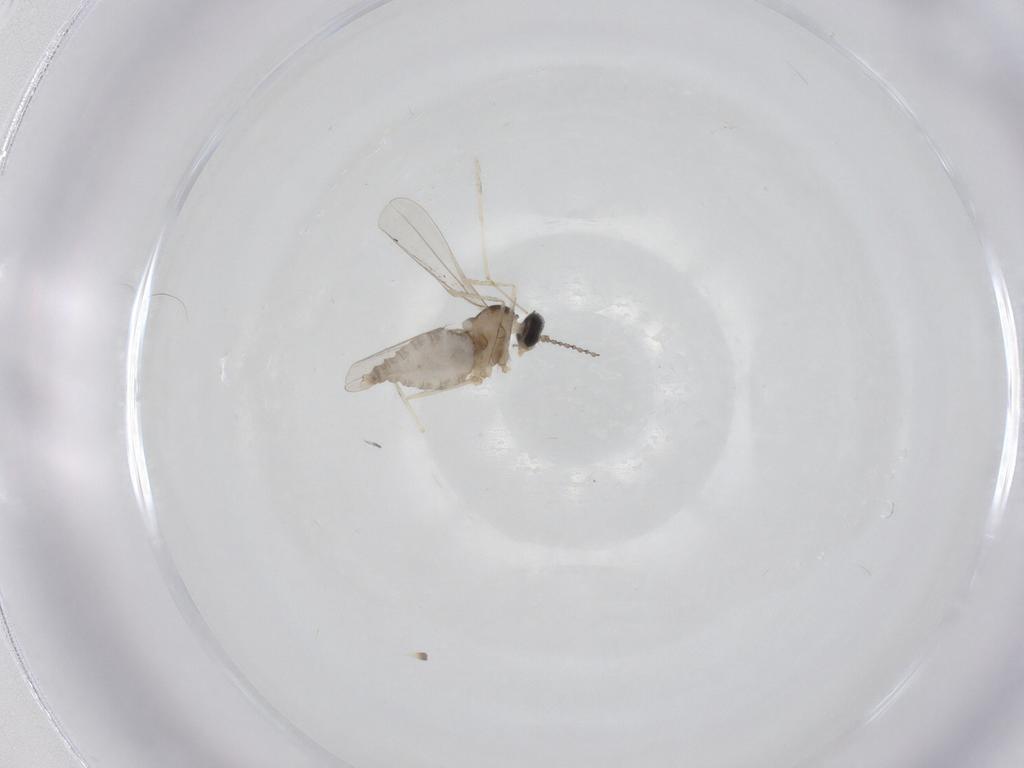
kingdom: Animalia
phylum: Arthropoda
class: Insecta
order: Diptera
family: Cecidomyiidae
